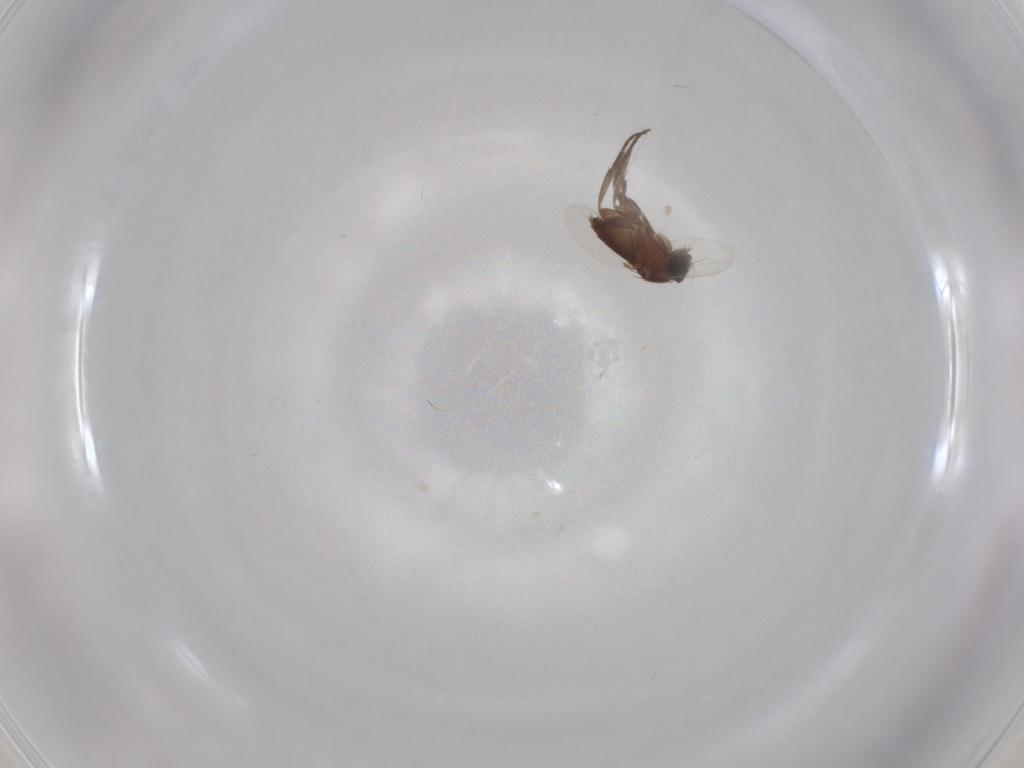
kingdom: Animalia
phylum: Arthropoda
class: Insecta
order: Diptera
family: Phoridae
